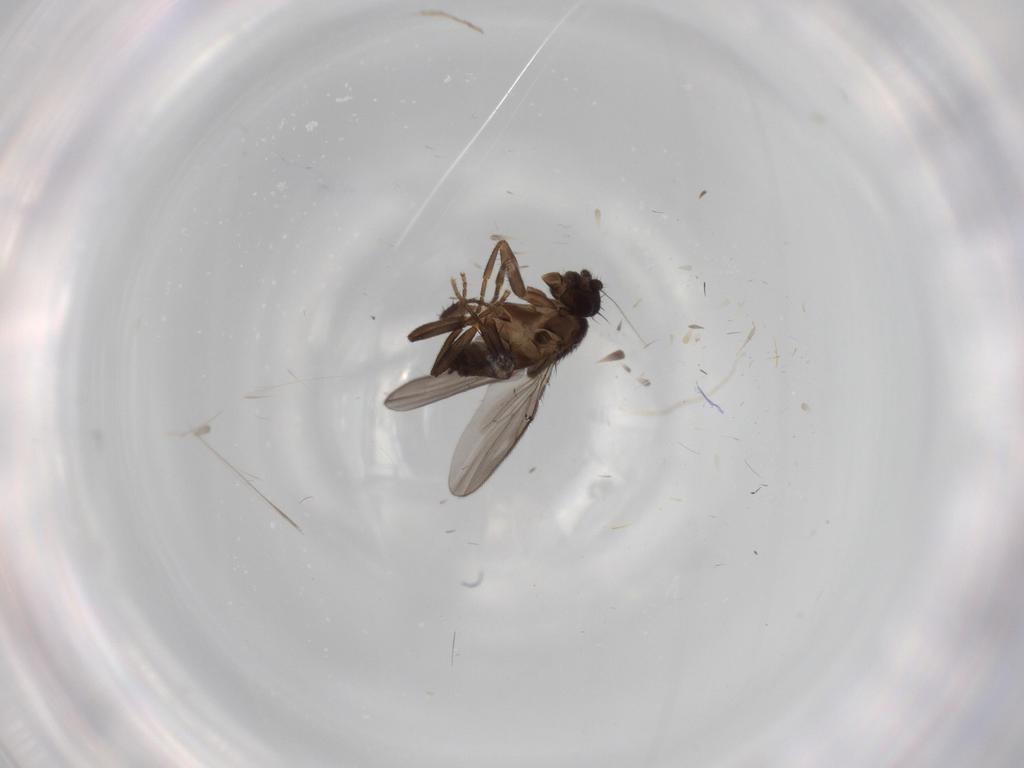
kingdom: Animalia
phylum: Arthropoda
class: Insecta
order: Diptera
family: Sphaeroceridae
